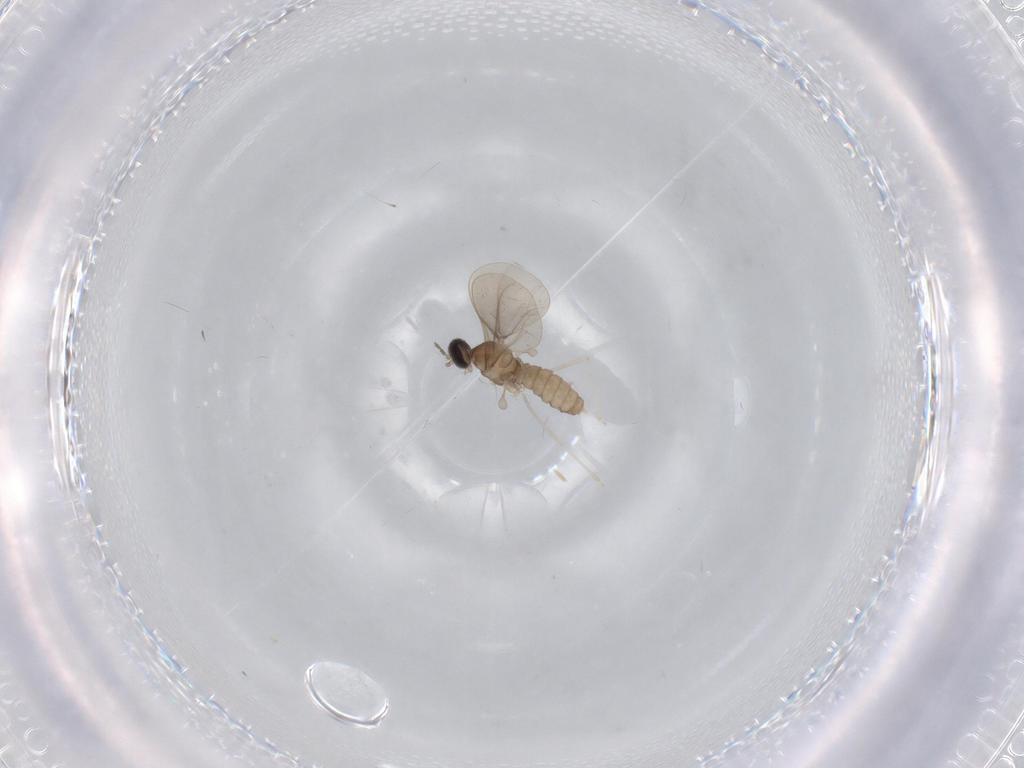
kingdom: Animalia
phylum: Arthropoda
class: Insecta
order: Diptera
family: Cecidomyiidae
